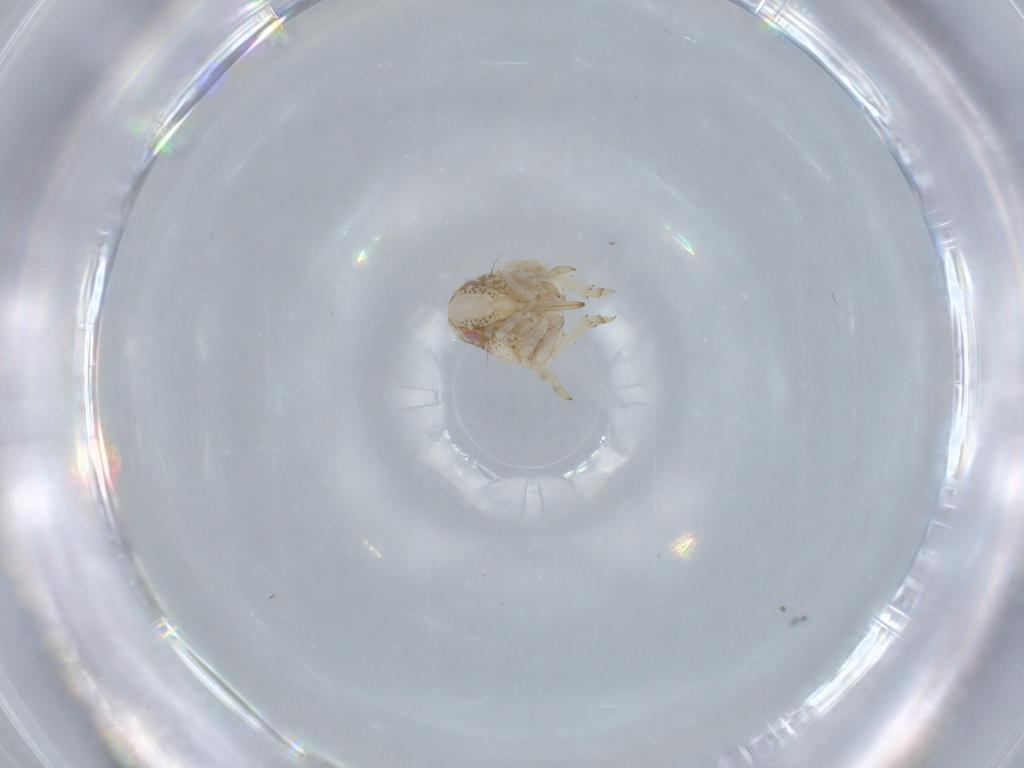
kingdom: Animalia
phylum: Arthropoda
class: Insecta
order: Hemiptera
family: Acanaloniidae
